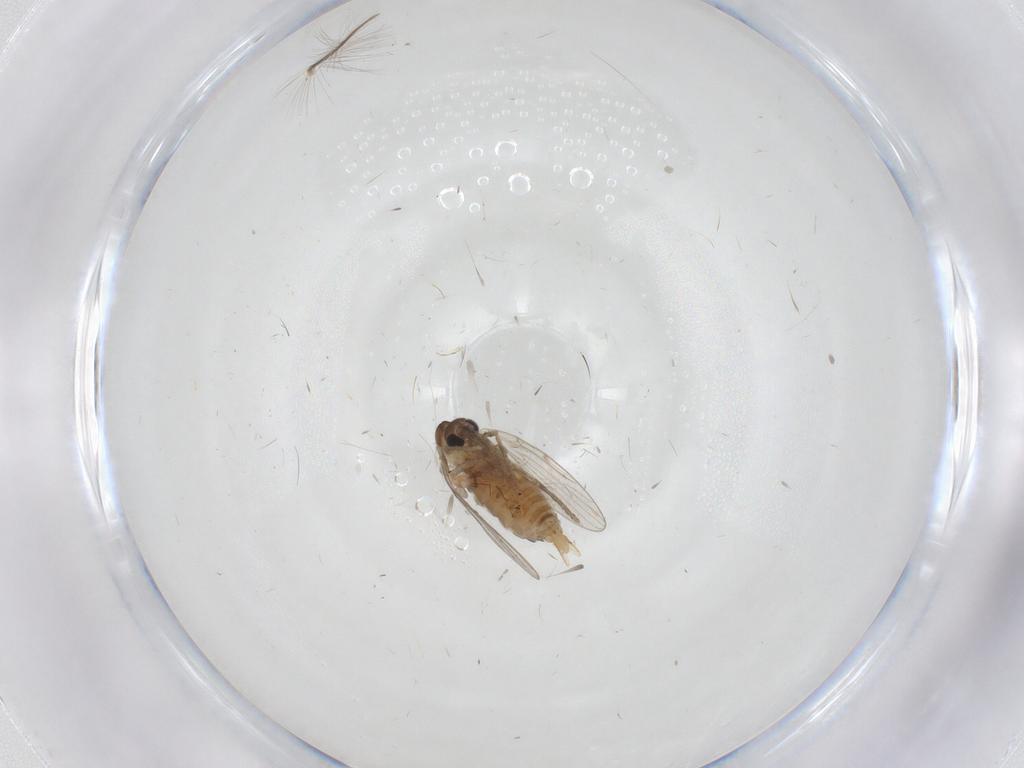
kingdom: Animalia
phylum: Arthropoda
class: Insecta
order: Diptera
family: Psychodidae
